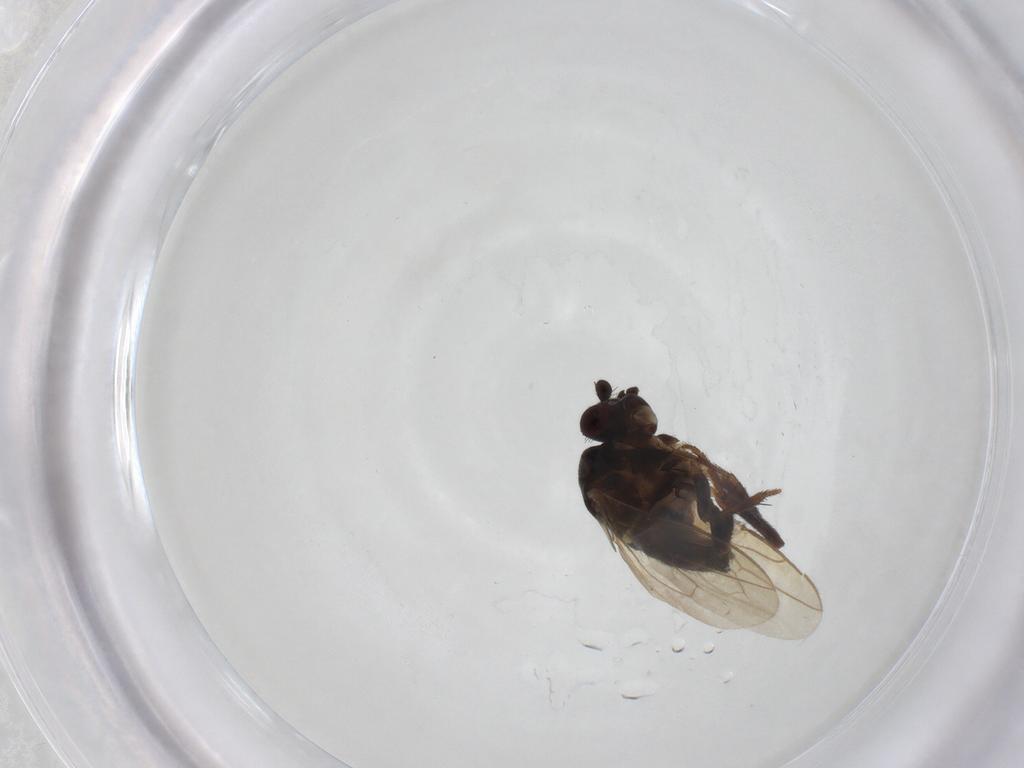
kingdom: Animalia
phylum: Arthropoda
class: Insecta
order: Diptera
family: Sphaeroceridae
